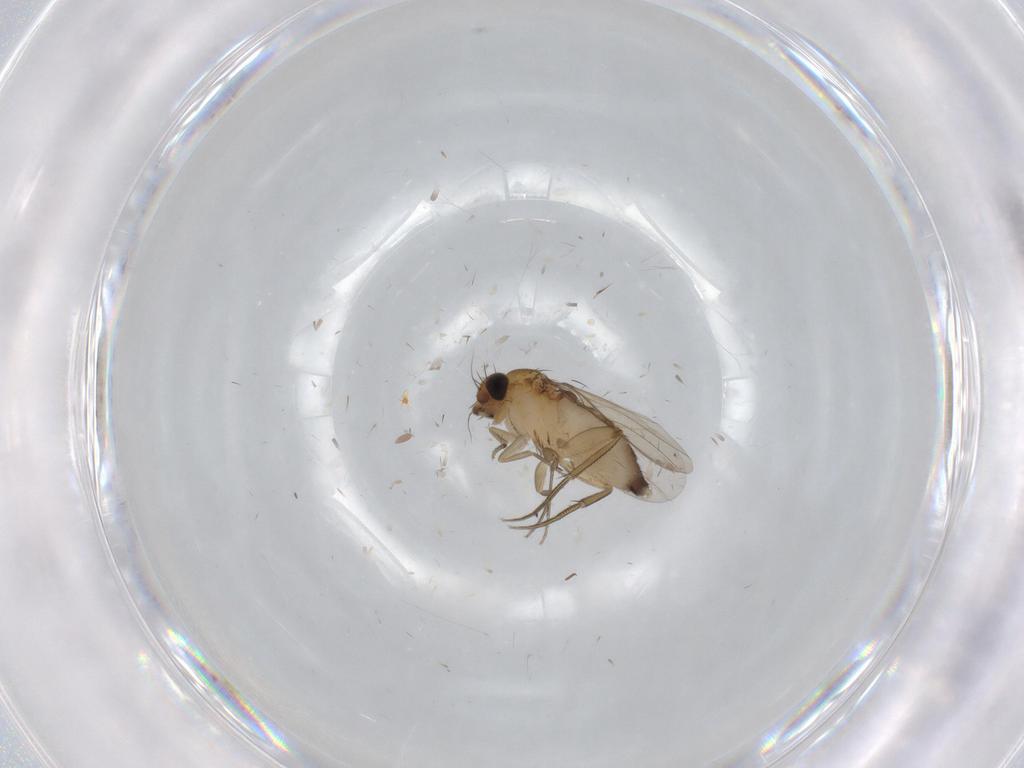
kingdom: Animalia
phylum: Arthropoda
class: Insecta
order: Diptera
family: Phoridae
